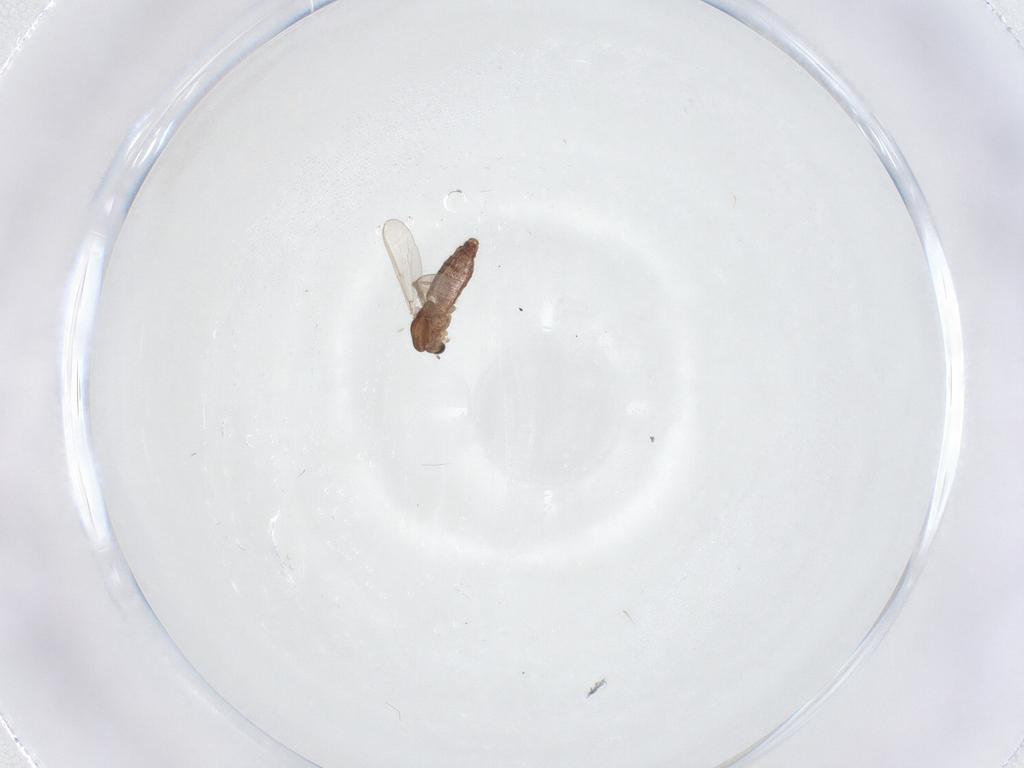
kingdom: Animalia
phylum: Arthropoda
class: Insecta
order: Diptera
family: Chironomidae
